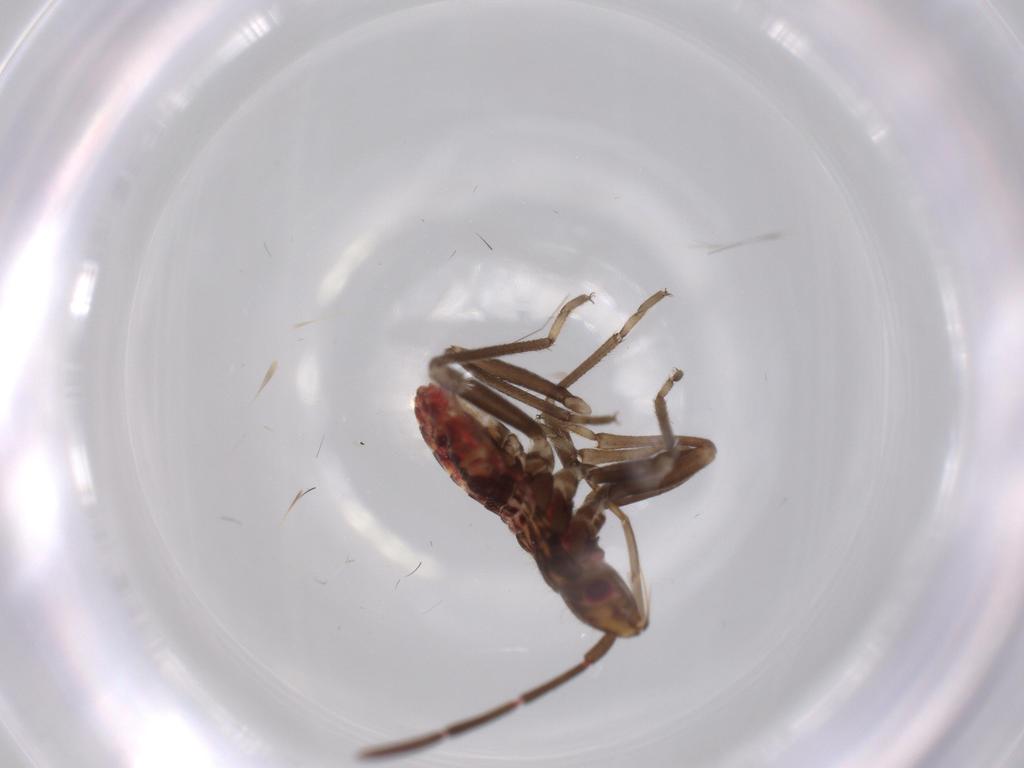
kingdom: Animalia
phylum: Arthropoda
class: Insecta
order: Hemiptera
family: Rhyparochromidae
